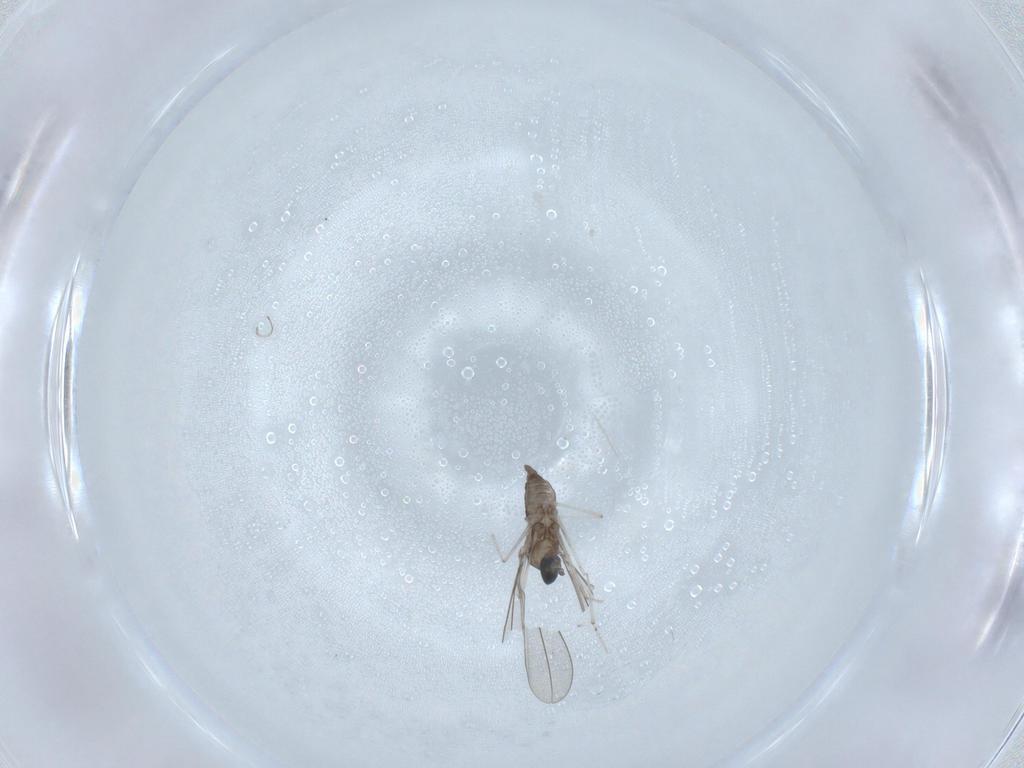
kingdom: Animalia
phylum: Arthropoda
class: Insecta
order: Diptera
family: Cecidomyiidae
